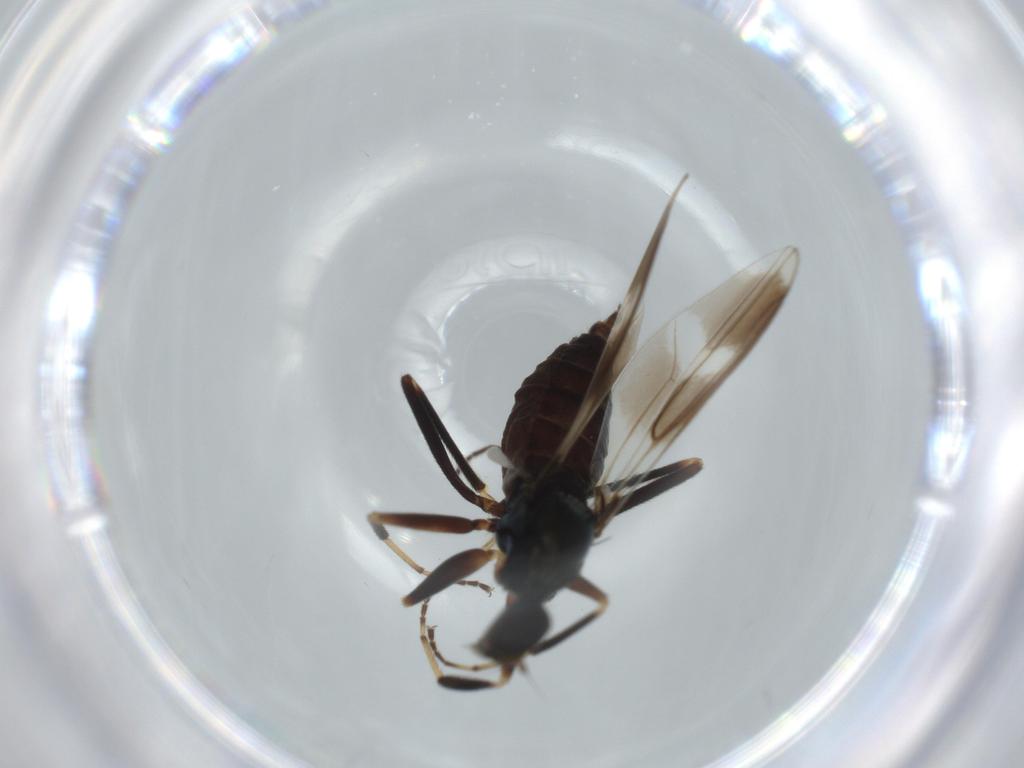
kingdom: Animalia
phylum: Arthropoda
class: Insecta
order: Diptera
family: Hybotidae
